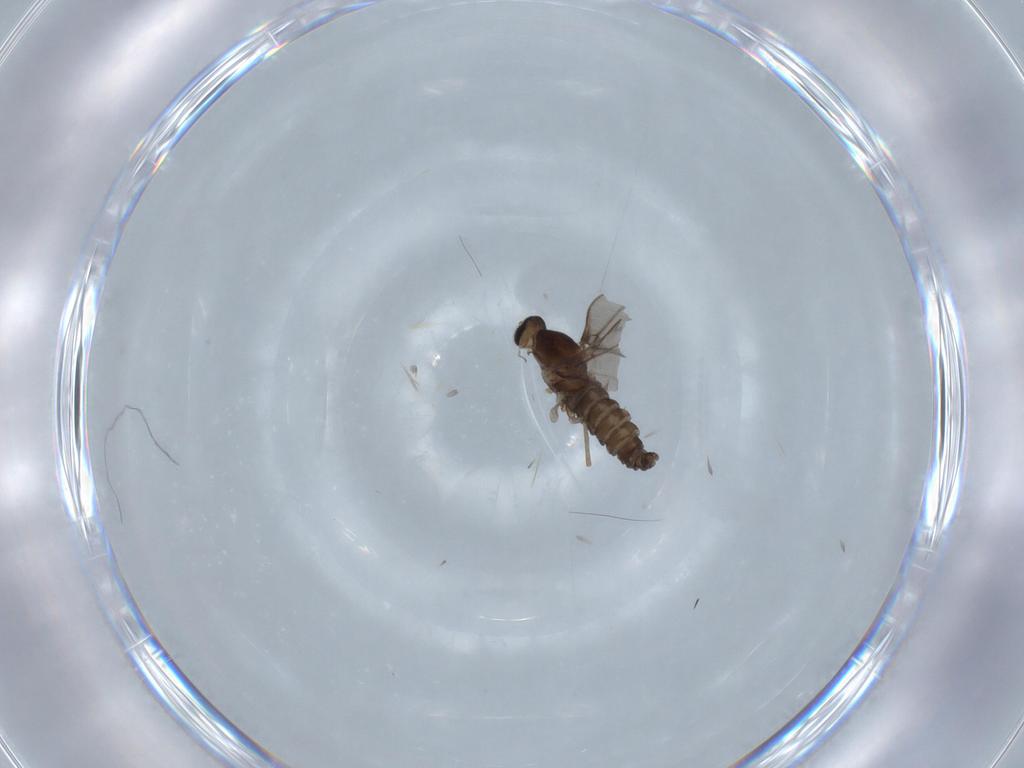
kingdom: Animalia
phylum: Arthropoda
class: Insecta
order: Diptera
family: Cecidomyiidae
